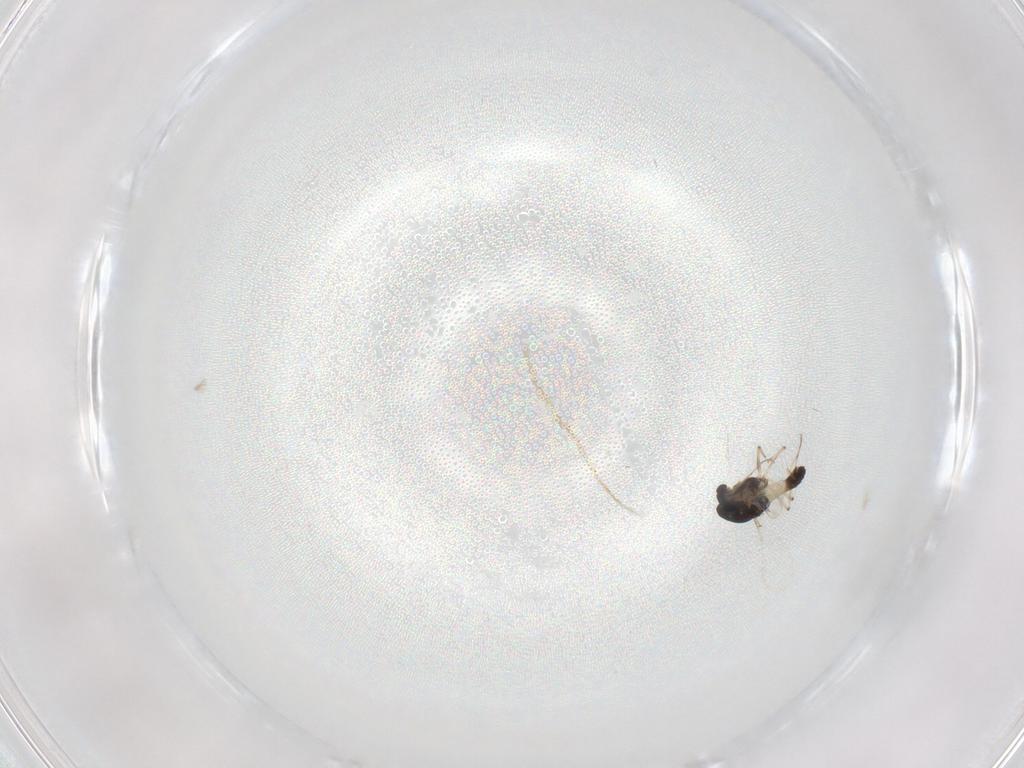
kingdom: Animalia
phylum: Arthropoda
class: Insecta
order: Diptera
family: Chironomidae
